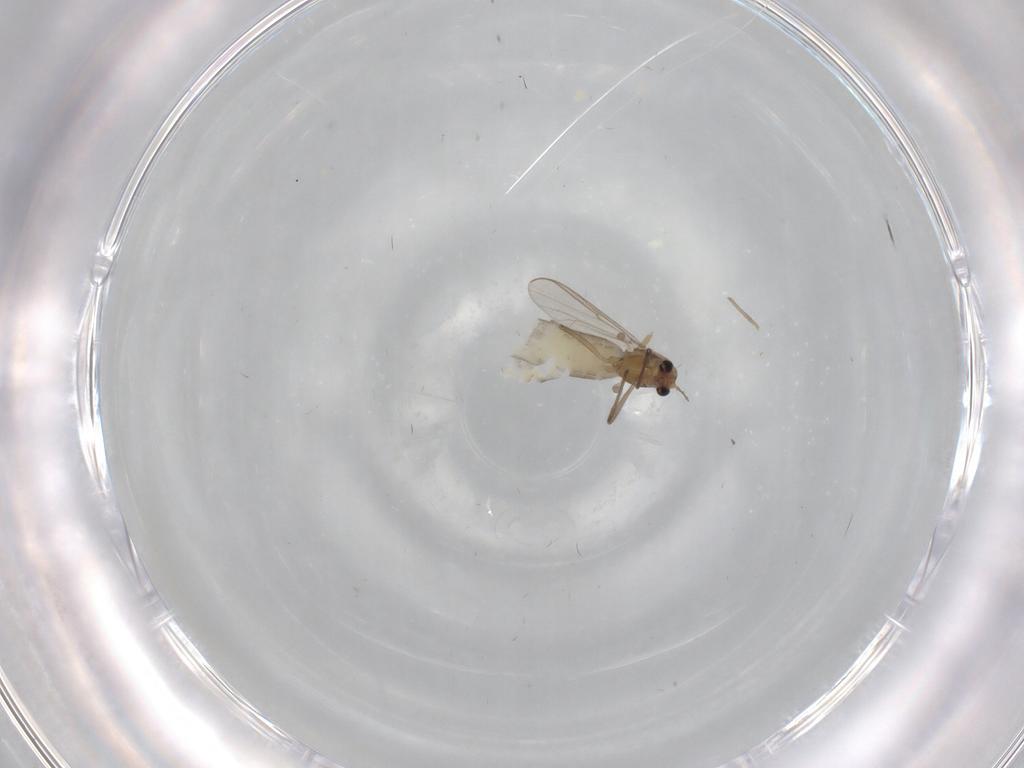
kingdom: Animalia
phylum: Arthropoda
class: Insecta
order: Diptera
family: Chironomidae
